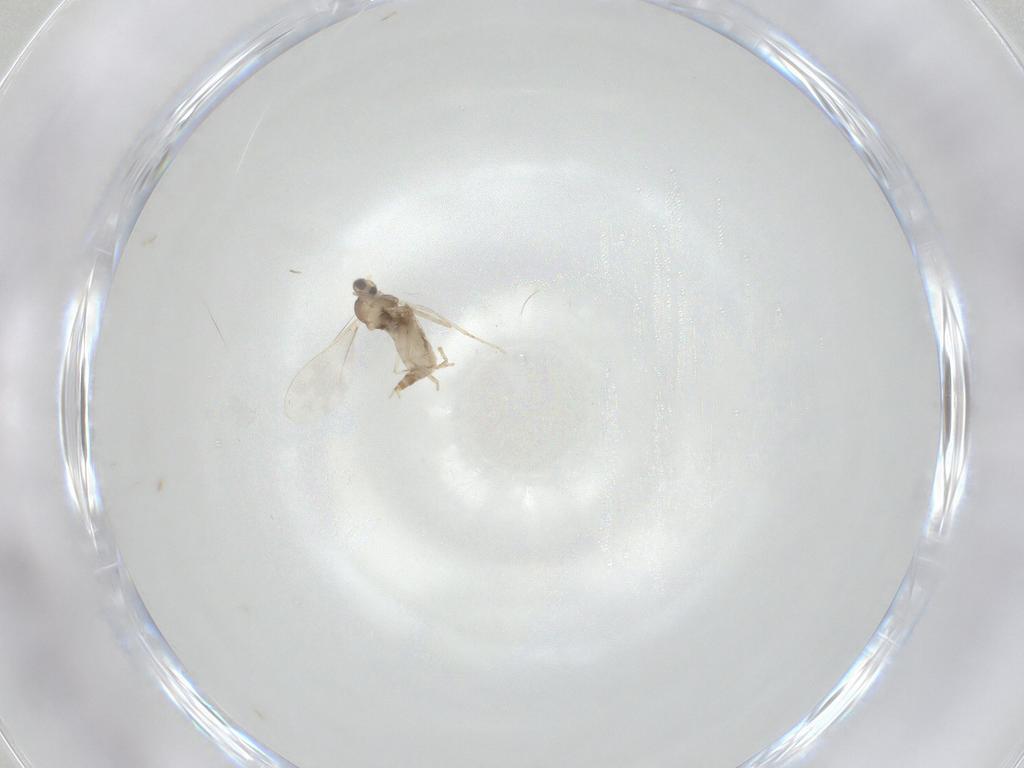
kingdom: Animalia
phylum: Arthropoda
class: Insecta
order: Diptera
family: Cecidomyiidae
